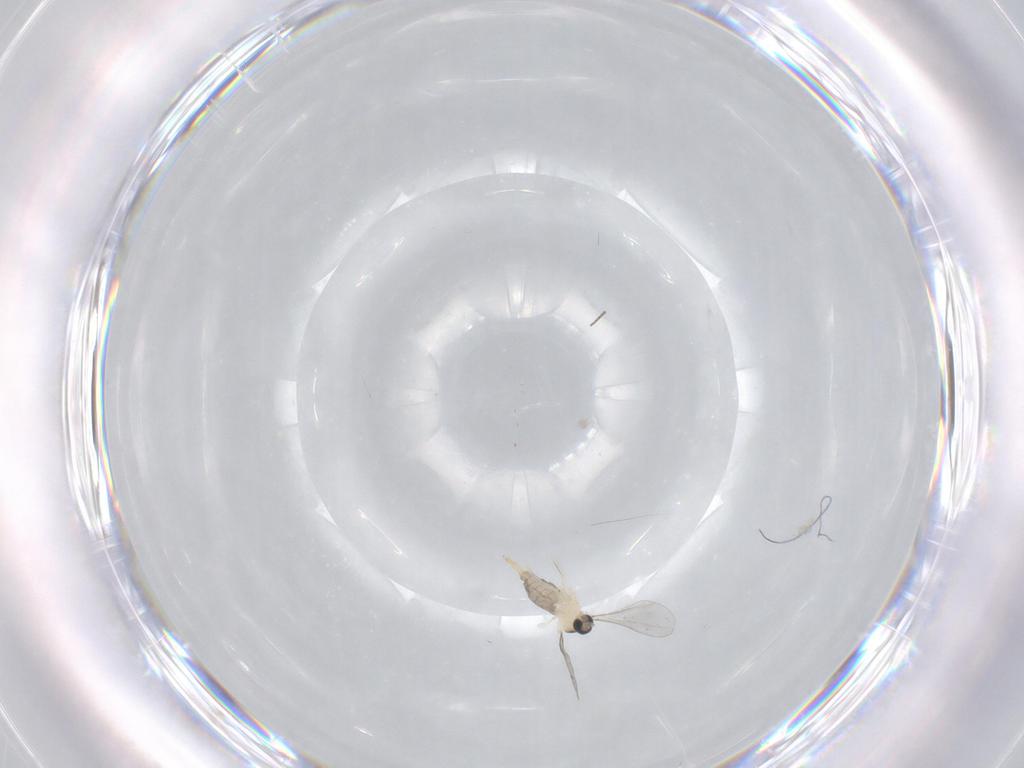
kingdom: Animalia
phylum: Arthropoda
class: Insecta
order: Diptera
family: Cecidomyiidae
